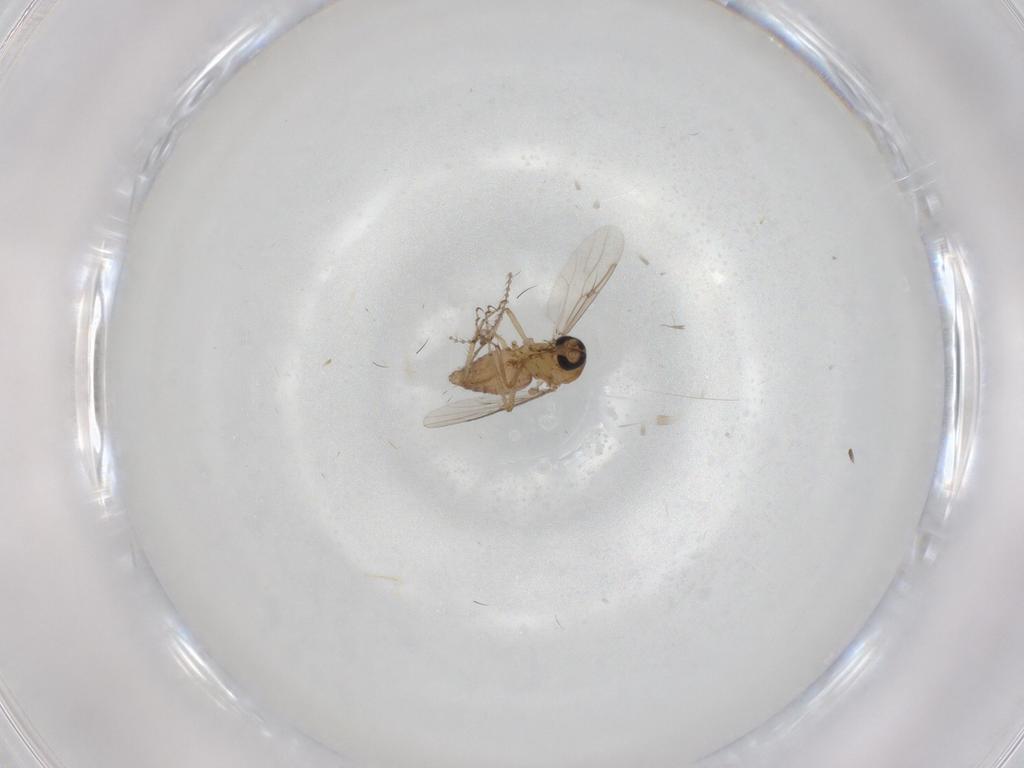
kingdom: Animalia
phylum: Arthropoda
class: Insecta
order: Diptera
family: Cecidomyiidae
